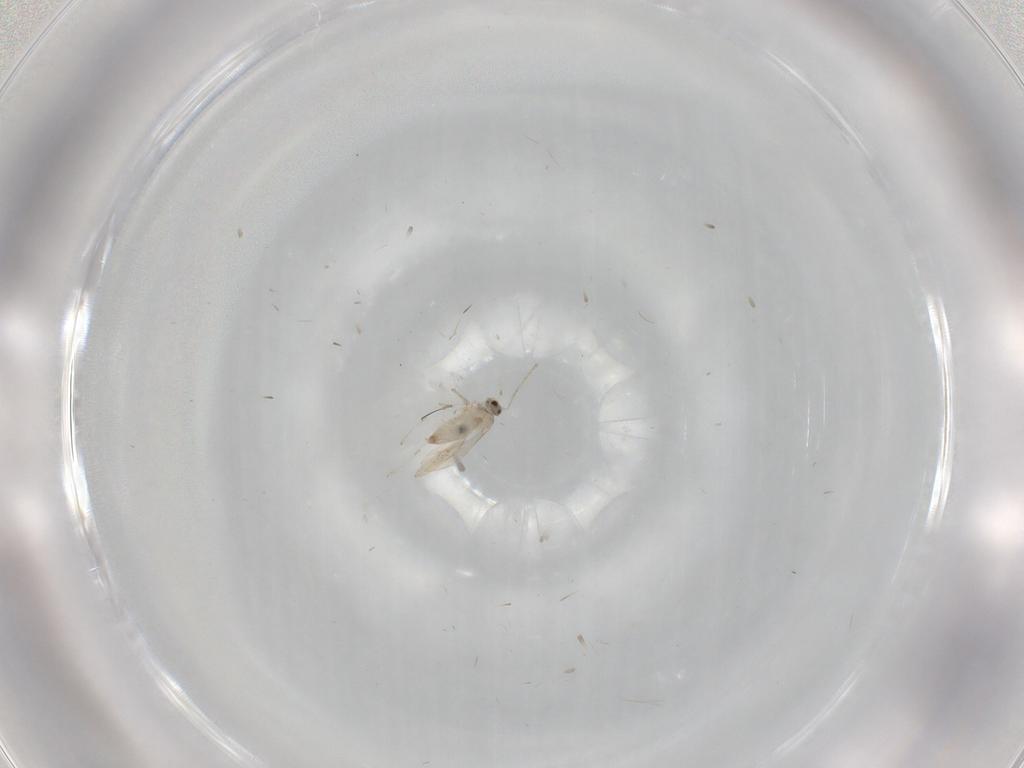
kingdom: Animalia
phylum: Arthropoda
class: Insecta
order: Diptera
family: Cecidomyiidae
